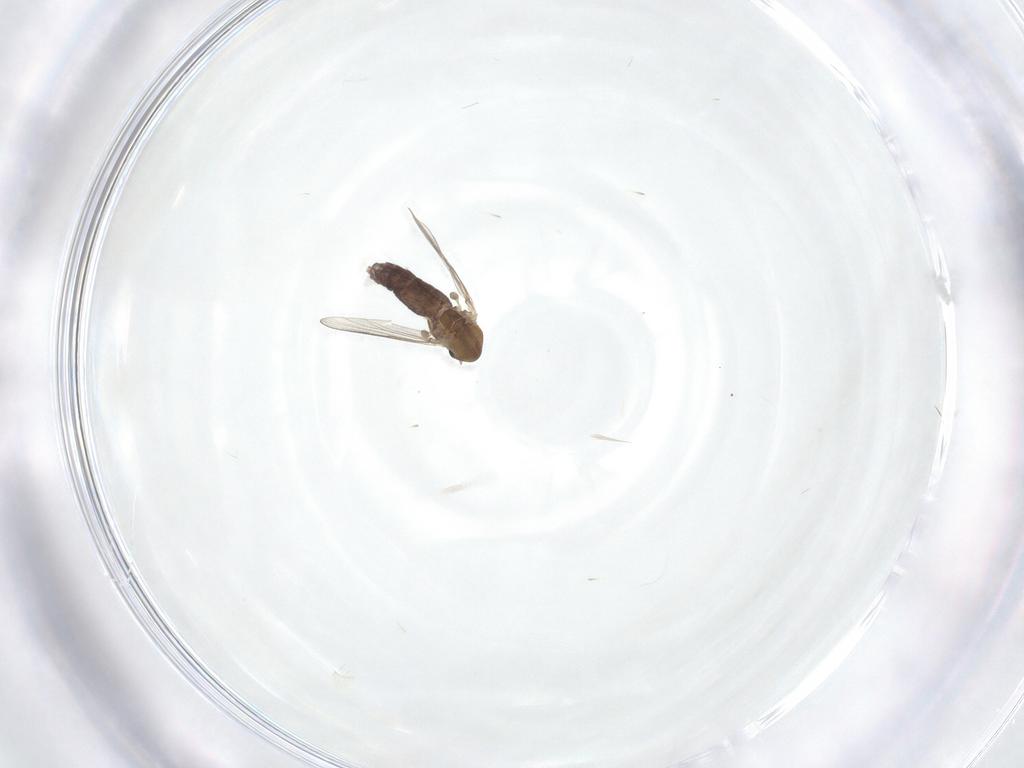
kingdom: Animalia
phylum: Arthropoda
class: Insecta
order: Diptera
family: Chironomidae
